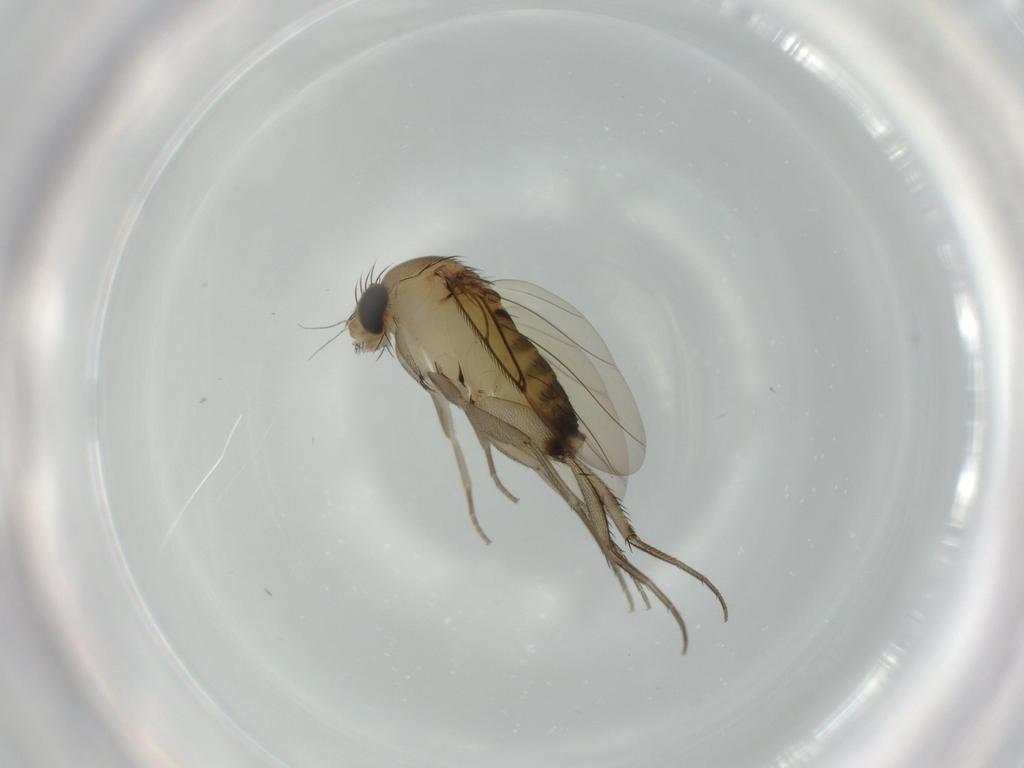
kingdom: Animalia
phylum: Arthropoda
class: Insecta
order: Diptera
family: Phoridae
